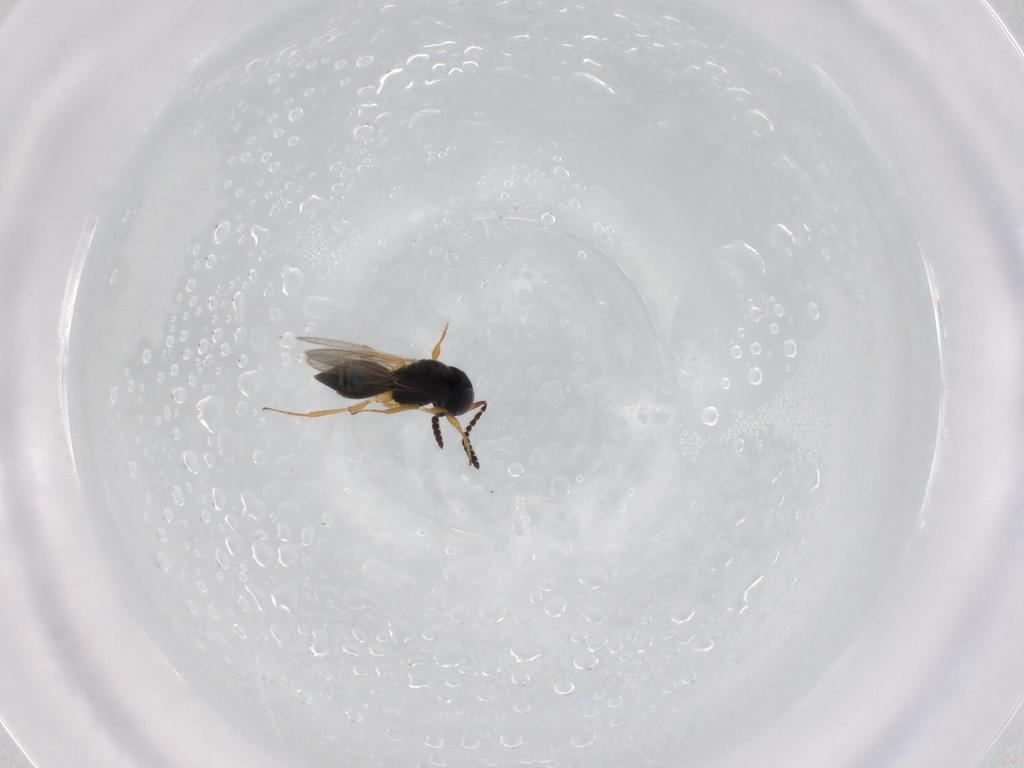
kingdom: Animalia
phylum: Arthropoda
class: Insecta
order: Hymenoptera
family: Scelionidae
